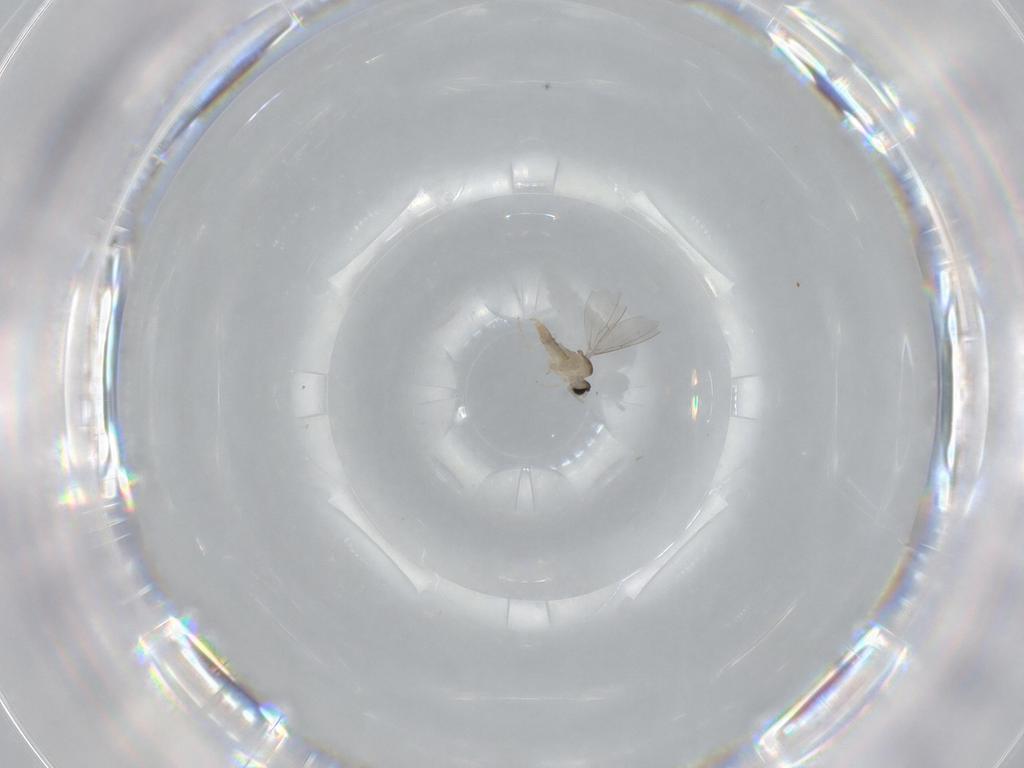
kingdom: Animalia
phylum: Arthropoda
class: Insecta
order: Diptera
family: Cecidomyiidae
